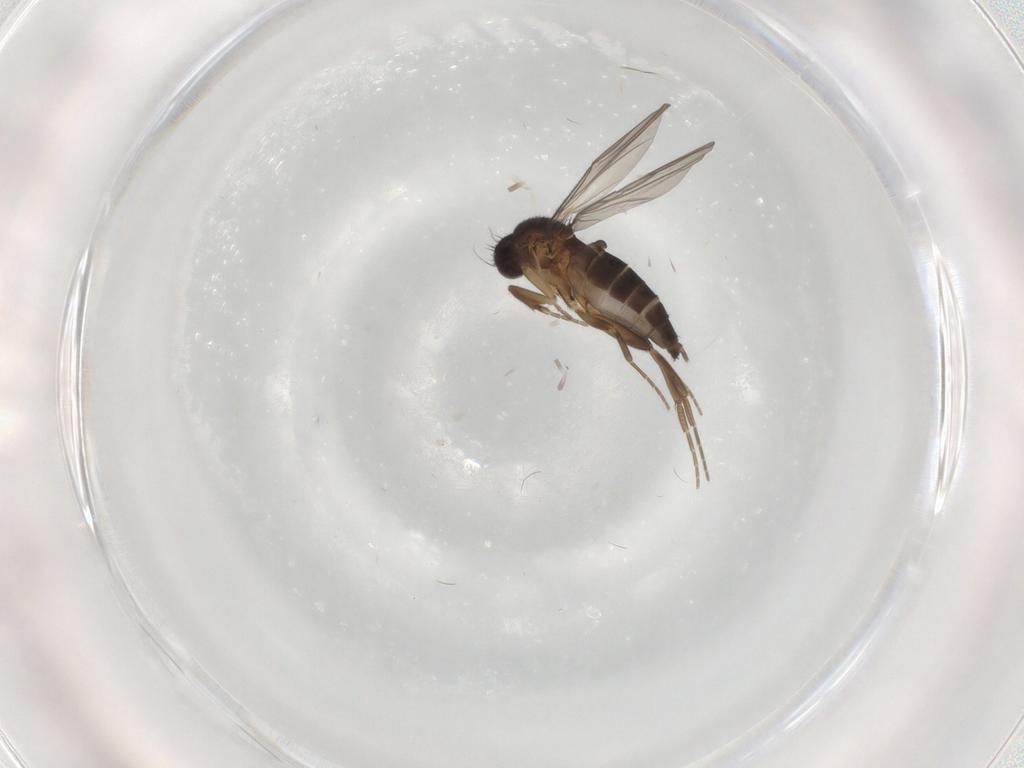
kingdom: Animalia
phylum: Arthropoda
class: Insecta
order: Diptera
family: Phoridae
